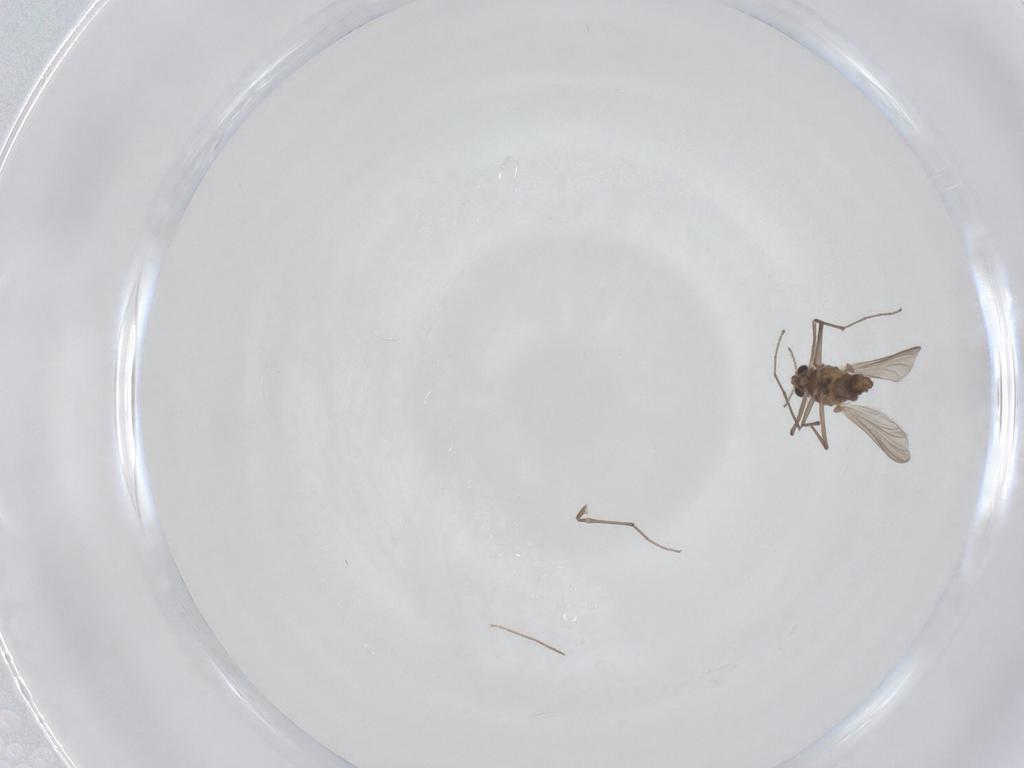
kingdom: Animalia
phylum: Arthropoda
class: Insecta
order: Diptera
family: Chironomidae
